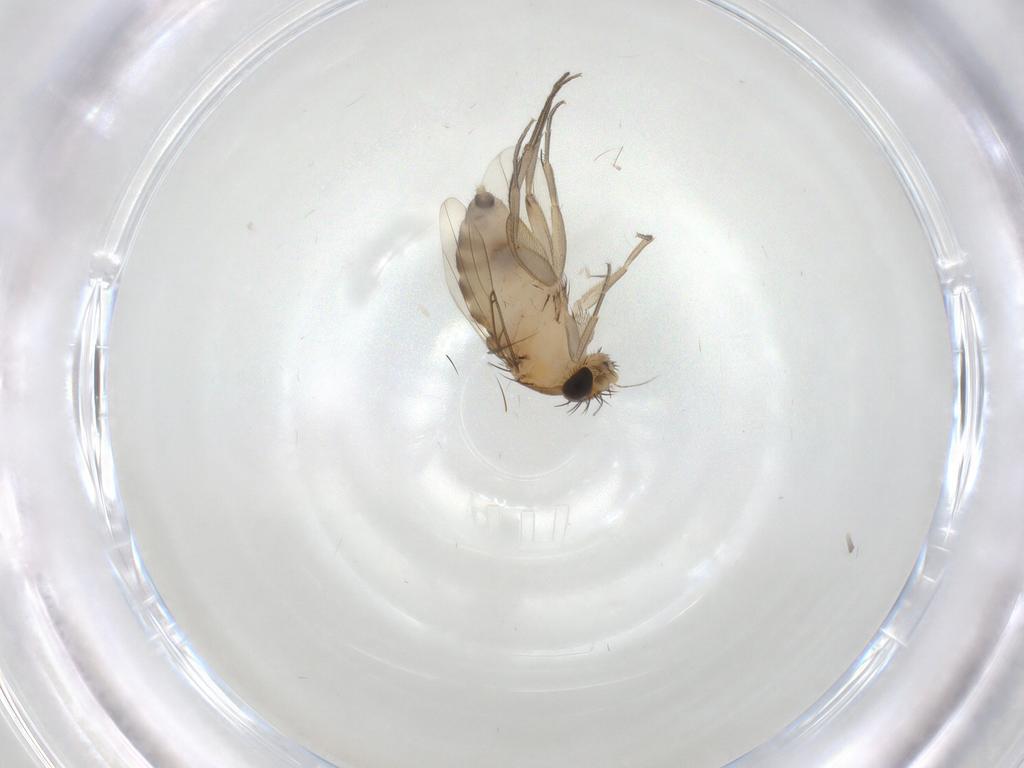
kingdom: Animalia
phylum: Arthropoda
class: Insecta
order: Diptera
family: Phoridae
